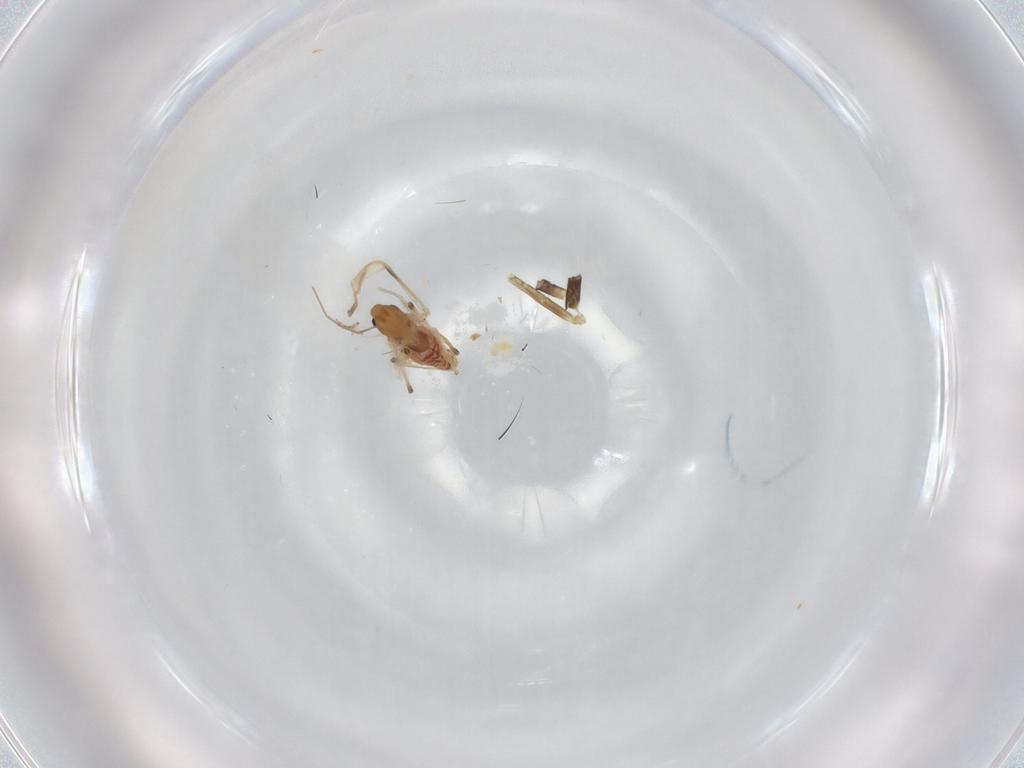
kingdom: Animalia
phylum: Arthropoda
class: Insecta
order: Diptera
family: Glossinidae
